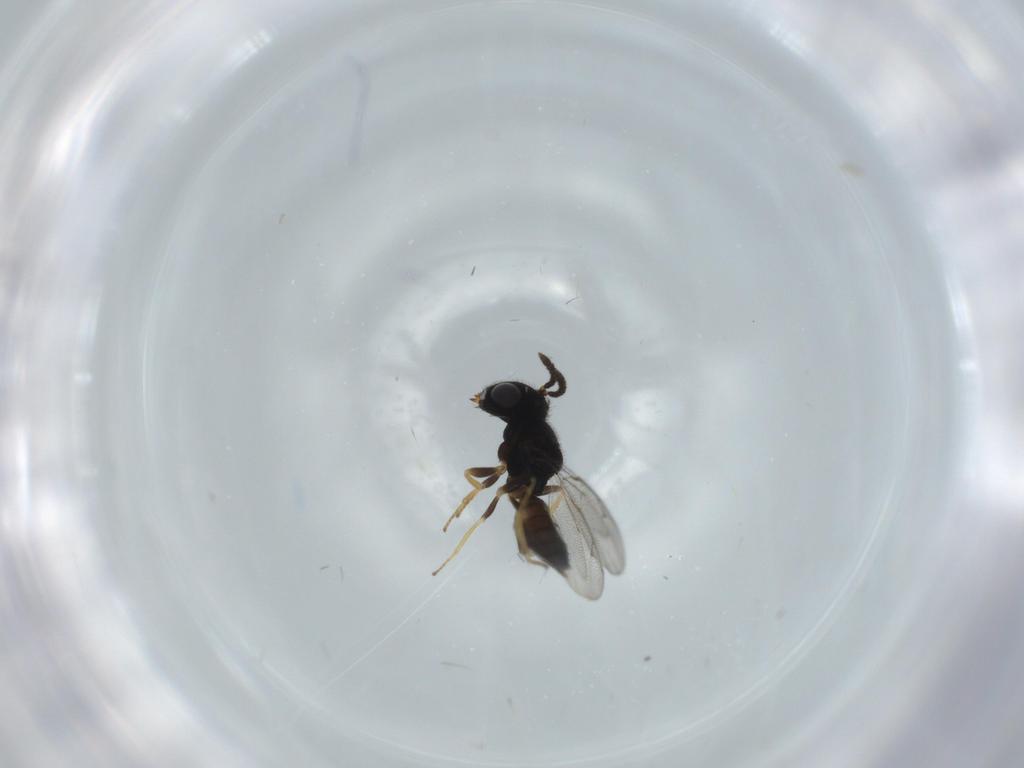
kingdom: Animalia
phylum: Arthropoda
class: Insecta
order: Hymenoptera
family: Pteromalidae
